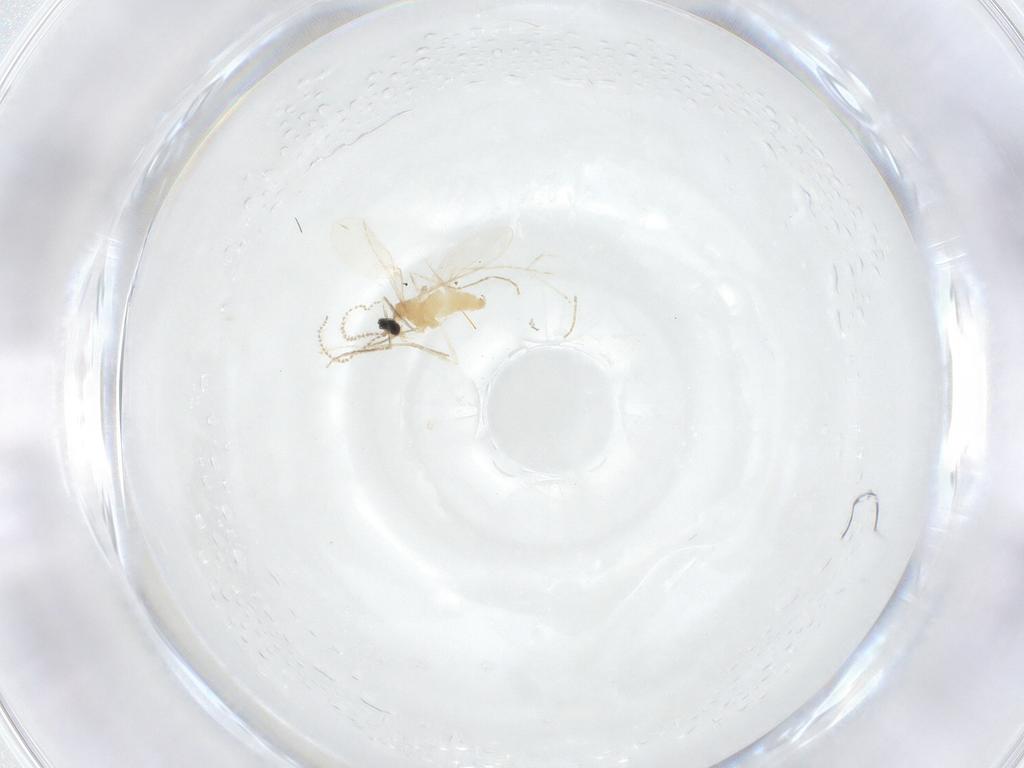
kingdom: Animalia
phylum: Arthropoda
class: Insecta
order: Diptera
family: Cecidomyiidae
